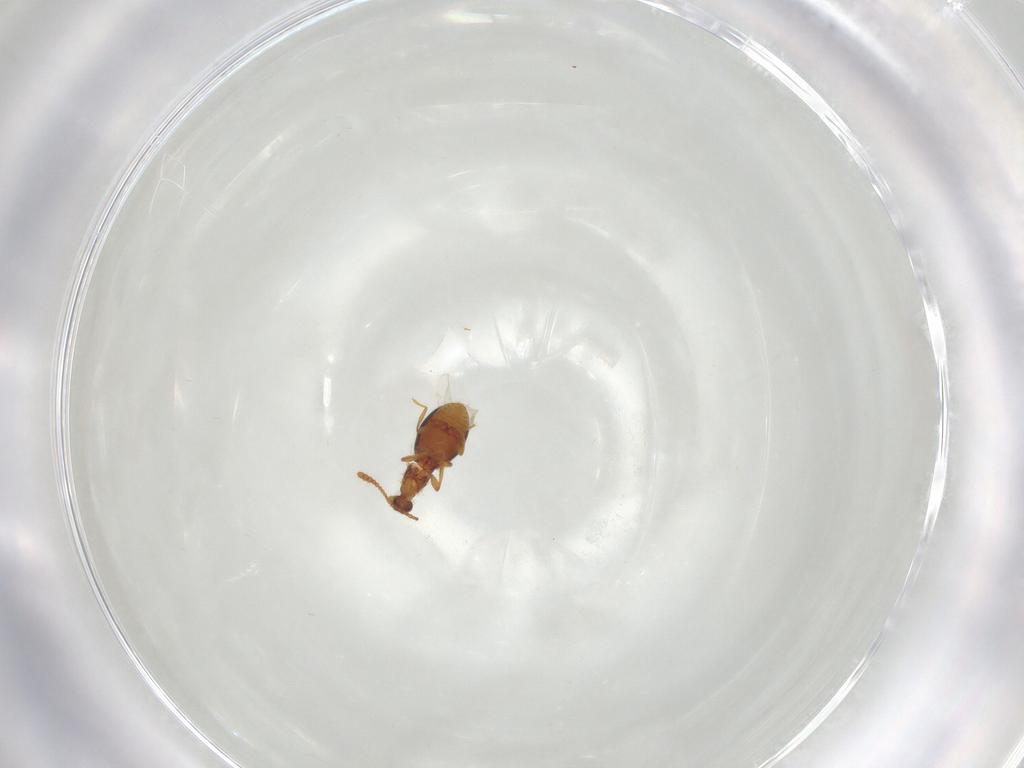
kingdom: Animalia
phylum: Arthropoda
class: Insecta
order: Coleoptera
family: Staphylinidae
